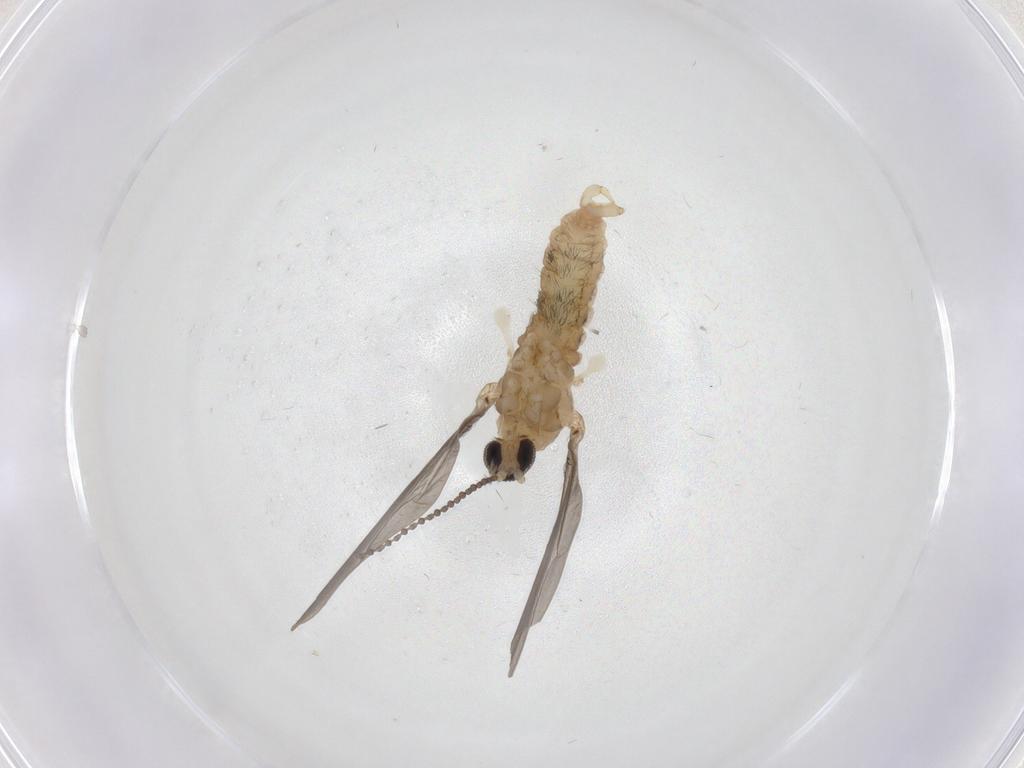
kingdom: Animalia
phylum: Arthropoda
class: Insecta
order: Diptera
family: Cecidomyiidae
